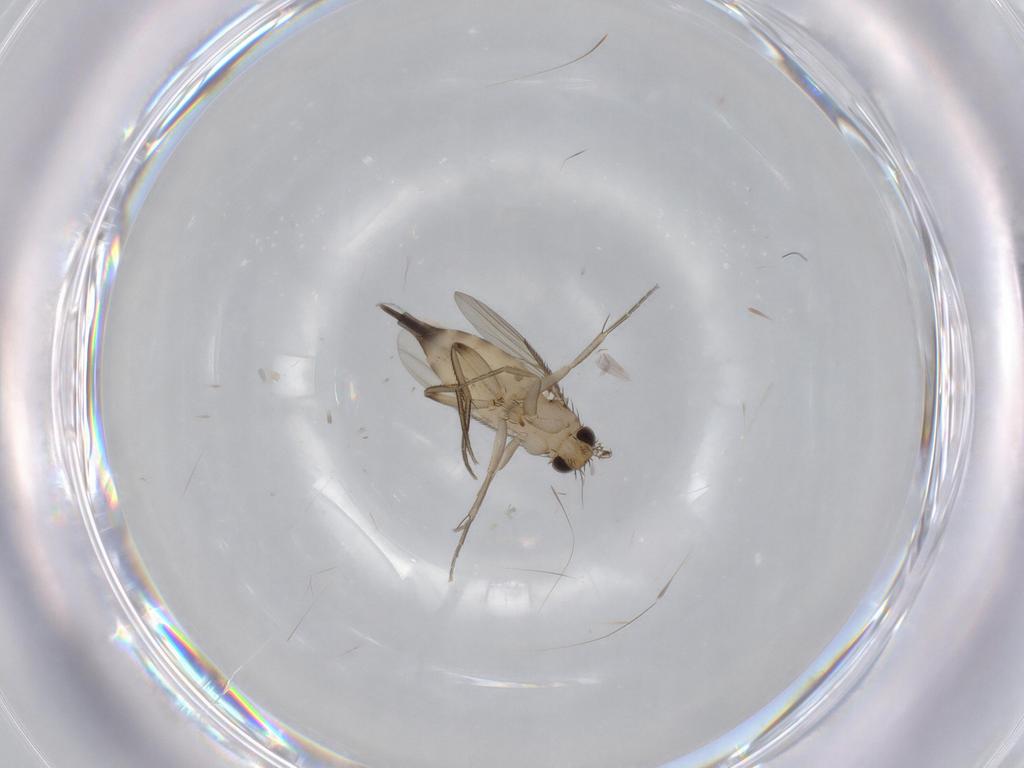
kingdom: Animalia
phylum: Arthropoda
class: Insecta
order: Diptera
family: Phoridae
